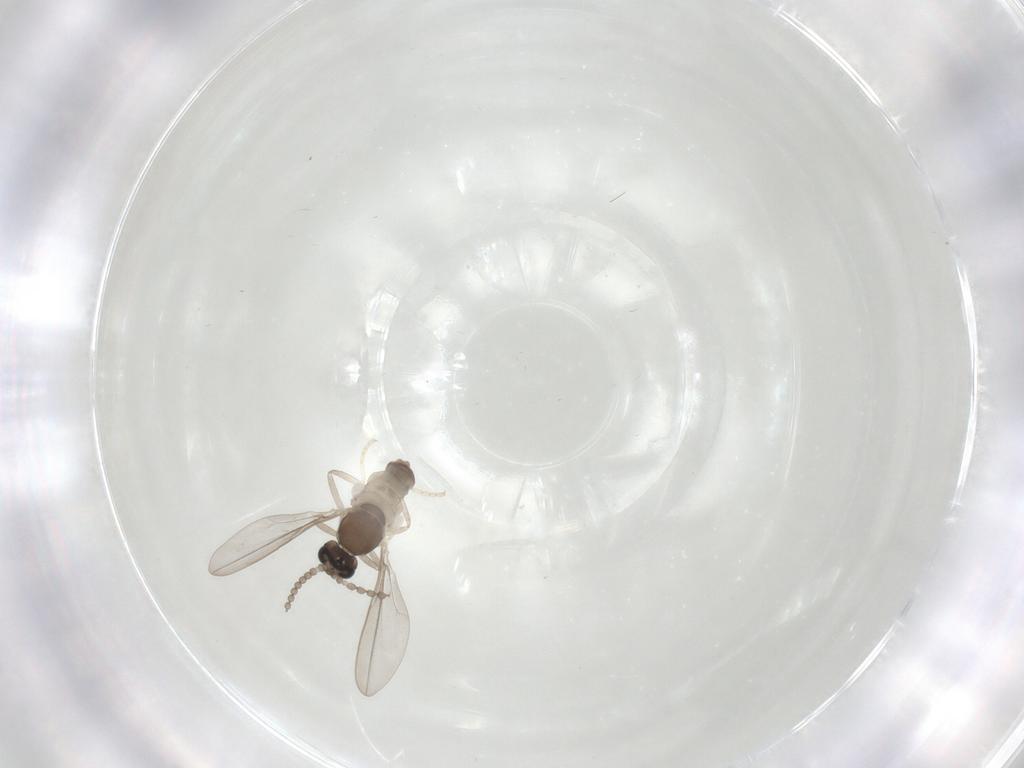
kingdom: Animalia
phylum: Arthropoda
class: Insecta
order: Diptera
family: Cecidomyiidae
